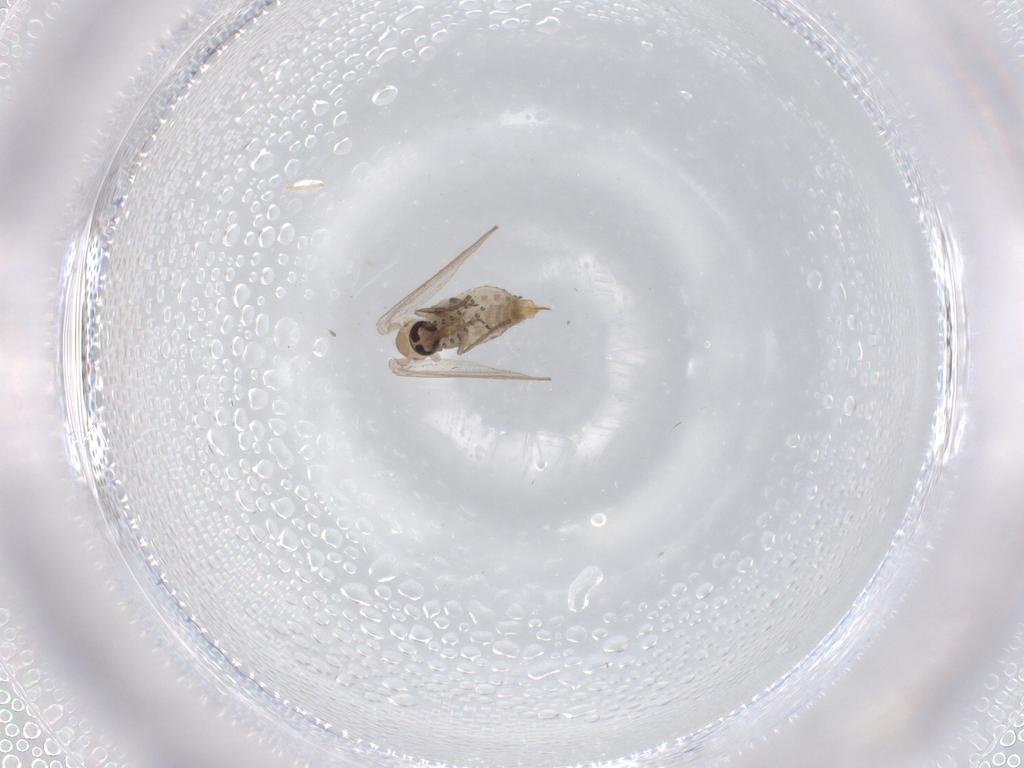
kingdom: Animalia
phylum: Arthropoda
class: Insecta
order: Diptera
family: Psychodidae
